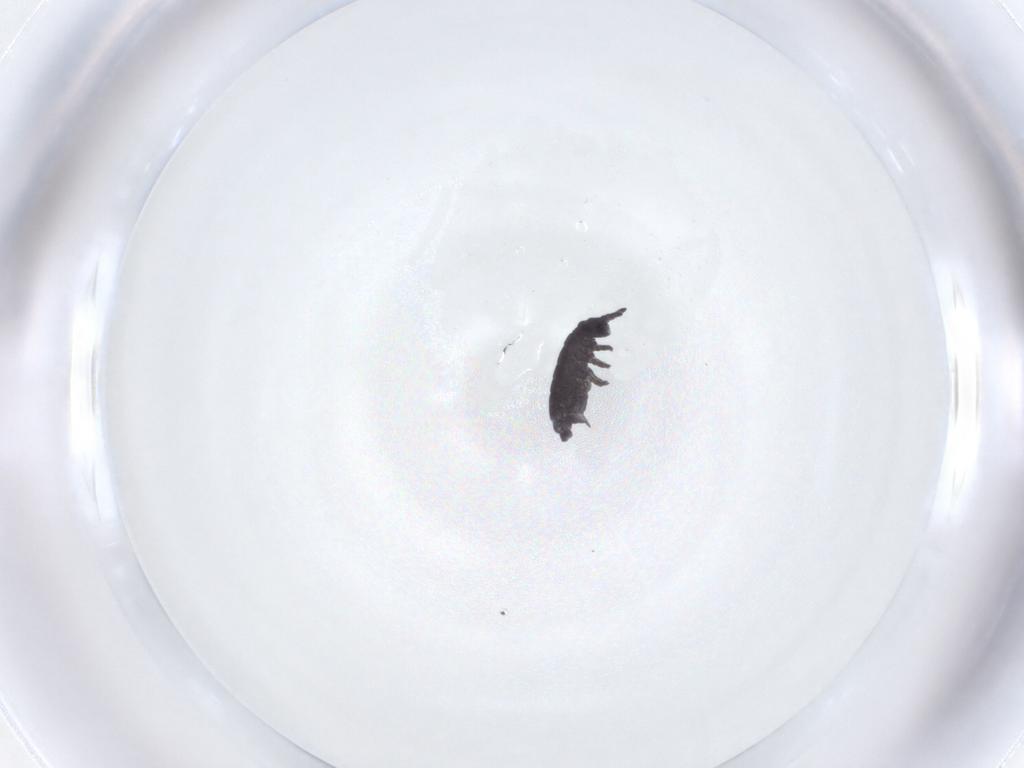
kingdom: Animalia
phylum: Arthropoda
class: Collembola
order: Poduromorpha
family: Hypogastruridae
